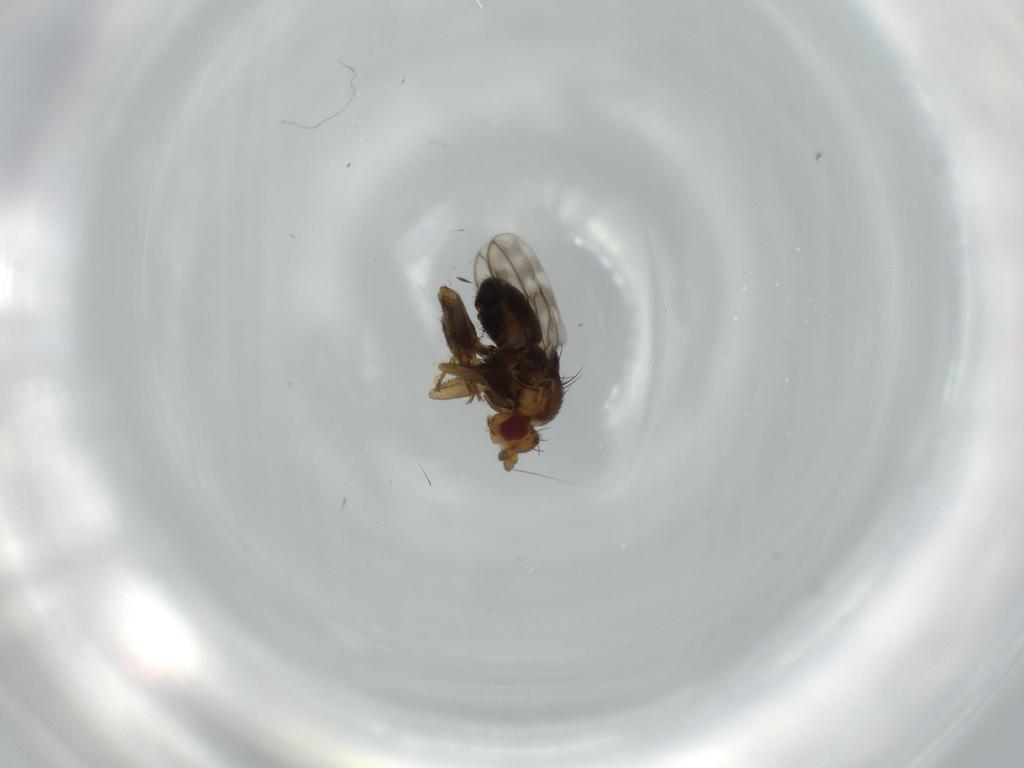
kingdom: Animalia
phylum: Arthropoda
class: Insecta
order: Diptera
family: Sphaeroceridae
